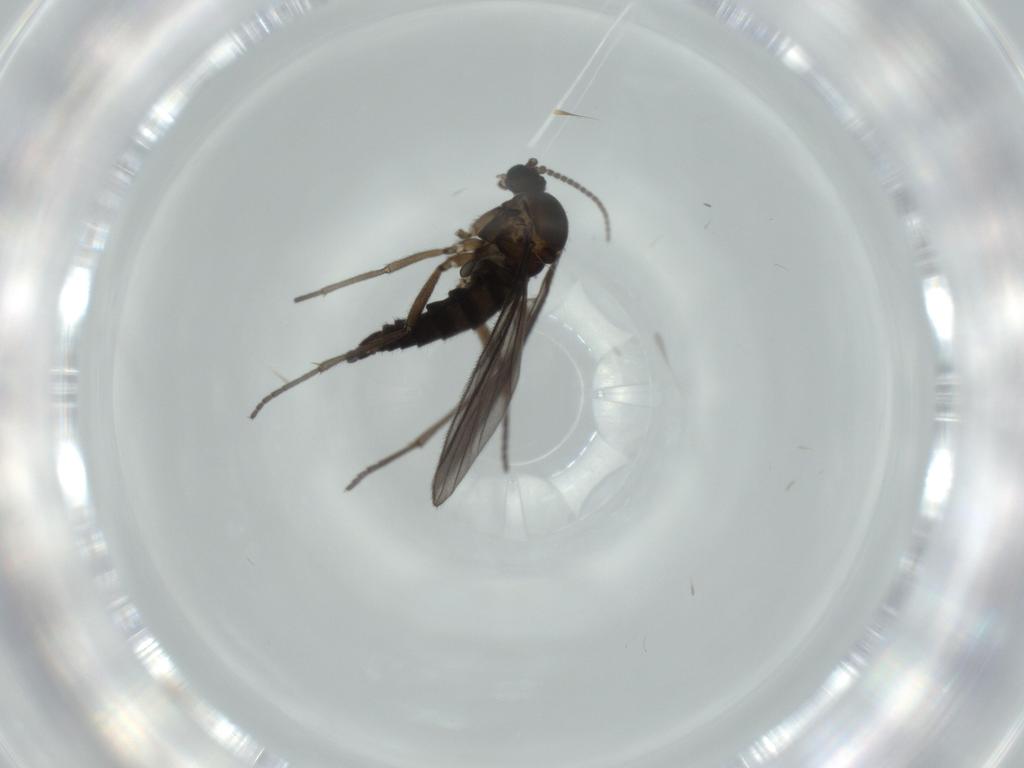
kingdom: Animalia
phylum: Arthropoda
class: Insecta
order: Diptera
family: Sciaridae
